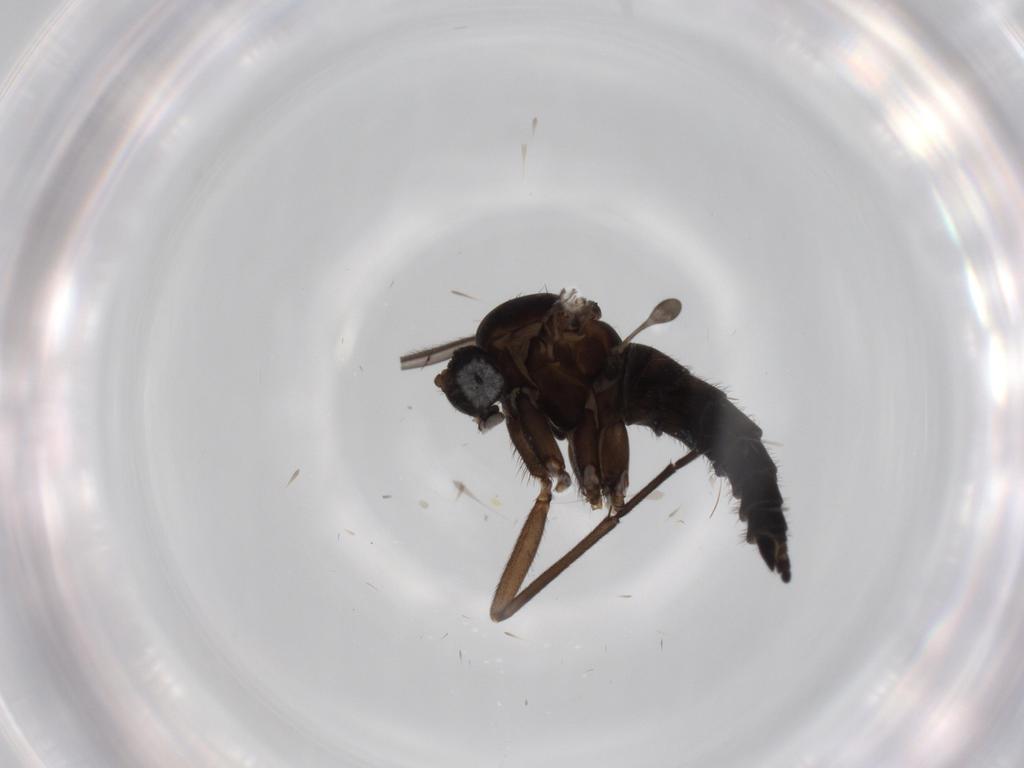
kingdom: Animalia
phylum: Arthropoda
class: Insecta
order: Diptera
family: Sciaridae
